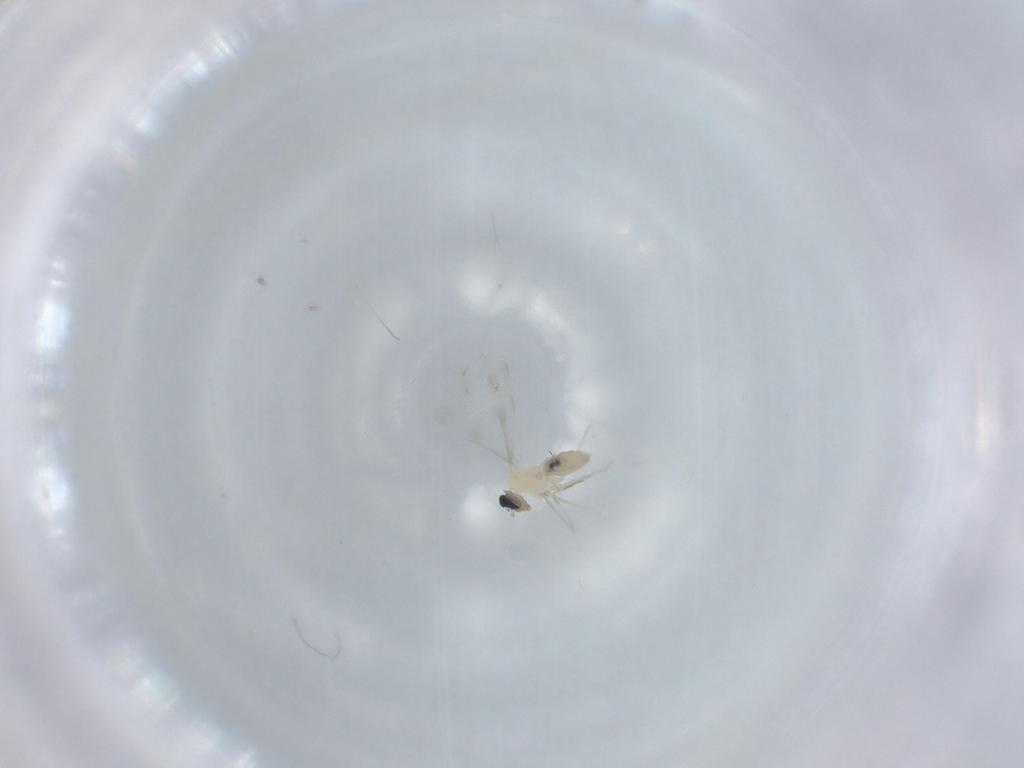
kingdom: Animalia
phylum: Arthropoda
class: Insecta
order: Diptera
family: Cecidomyiidae
